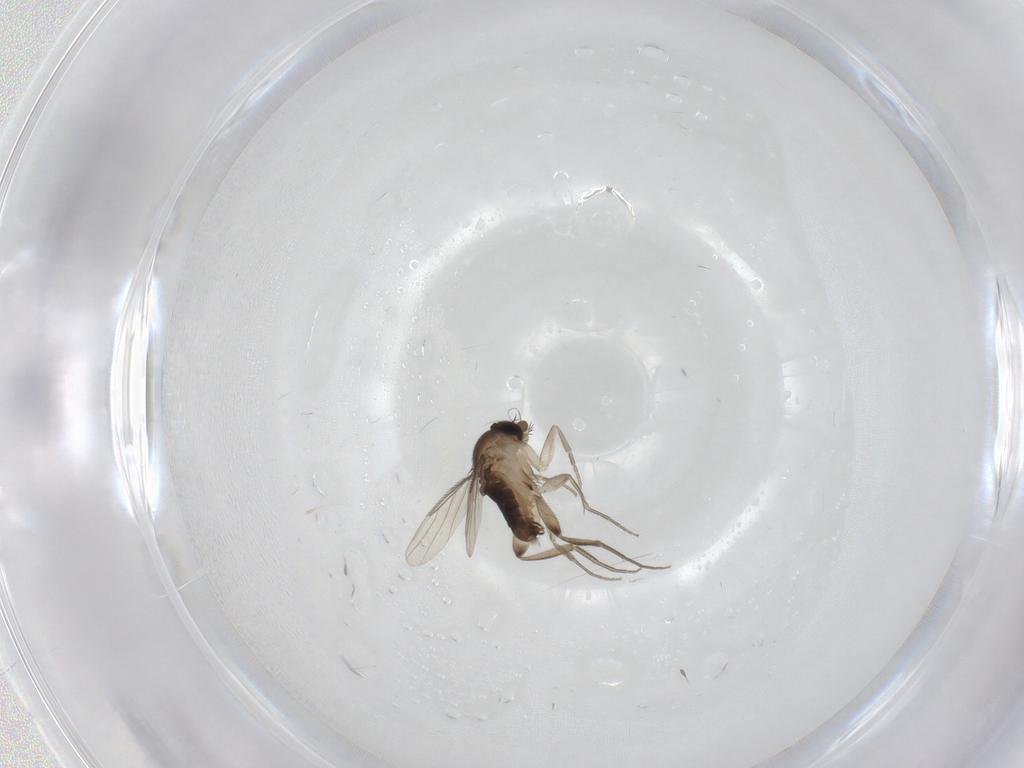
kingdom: Animalia
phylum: Arthropoda
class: Insecta
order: Diptera
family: Phoridae
